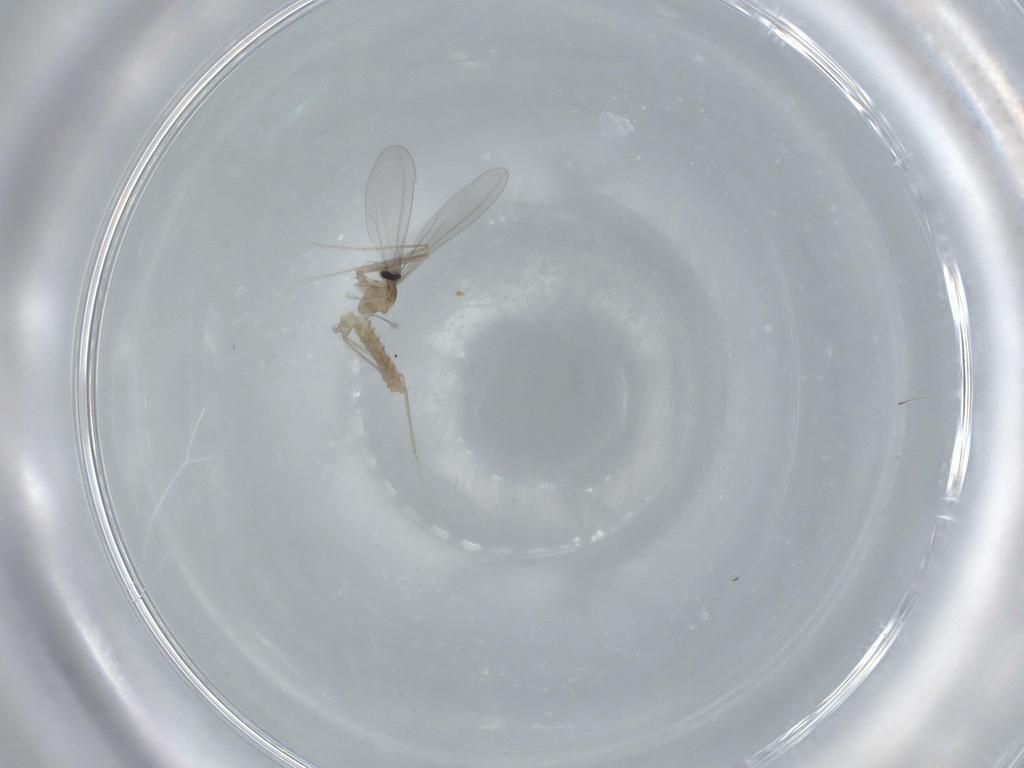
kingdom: Animalia
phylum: Arthropoda
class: Insecta
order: Diptera
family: Cecidomyiidae
